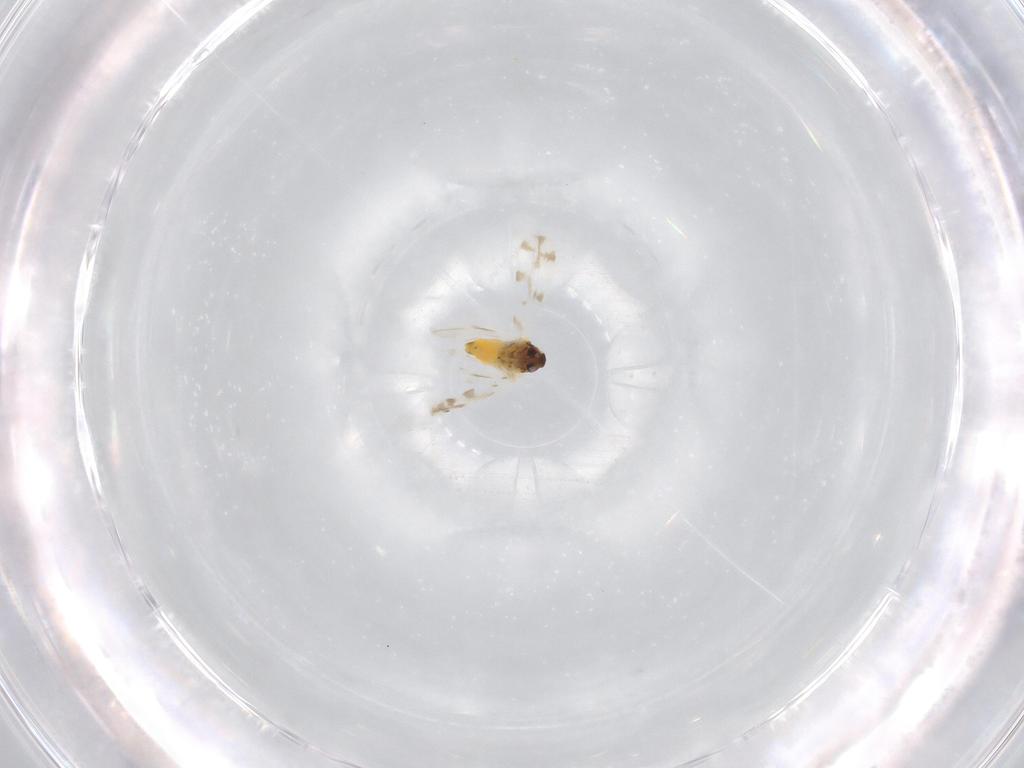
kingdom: Animalia
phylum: Arthropoda
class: Insecta
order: Hemiptera
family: Aleyrodidae
